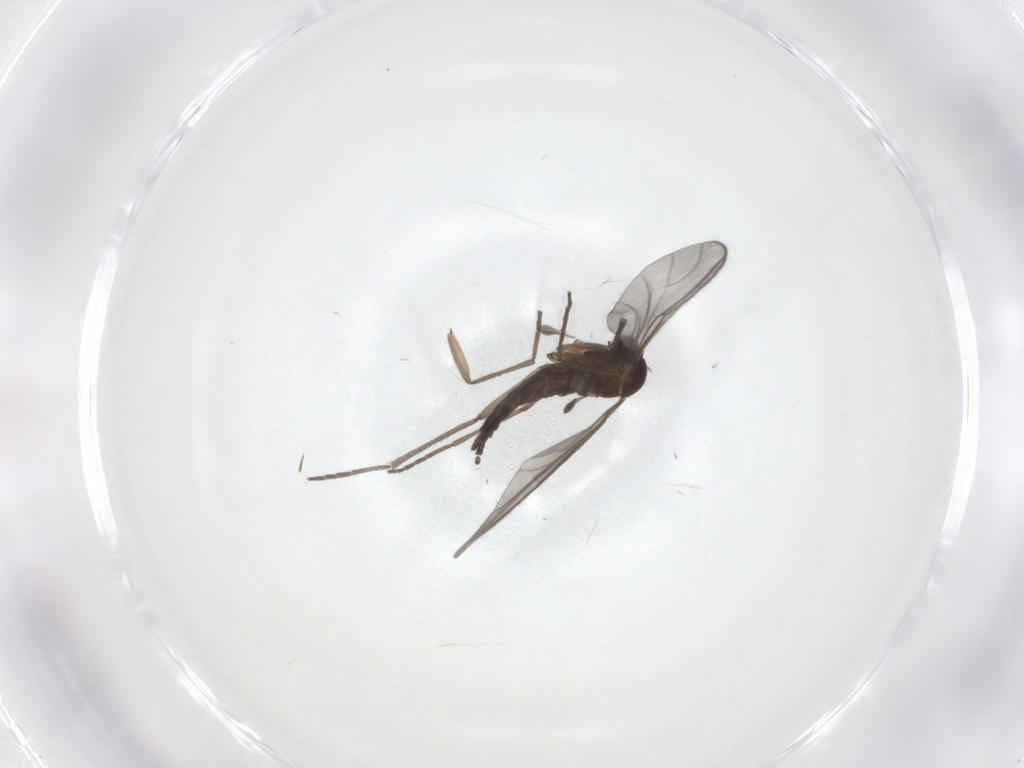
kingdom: Animalia
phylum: Arthropoda
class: Insecta
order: Diptera
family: Sciaridae
